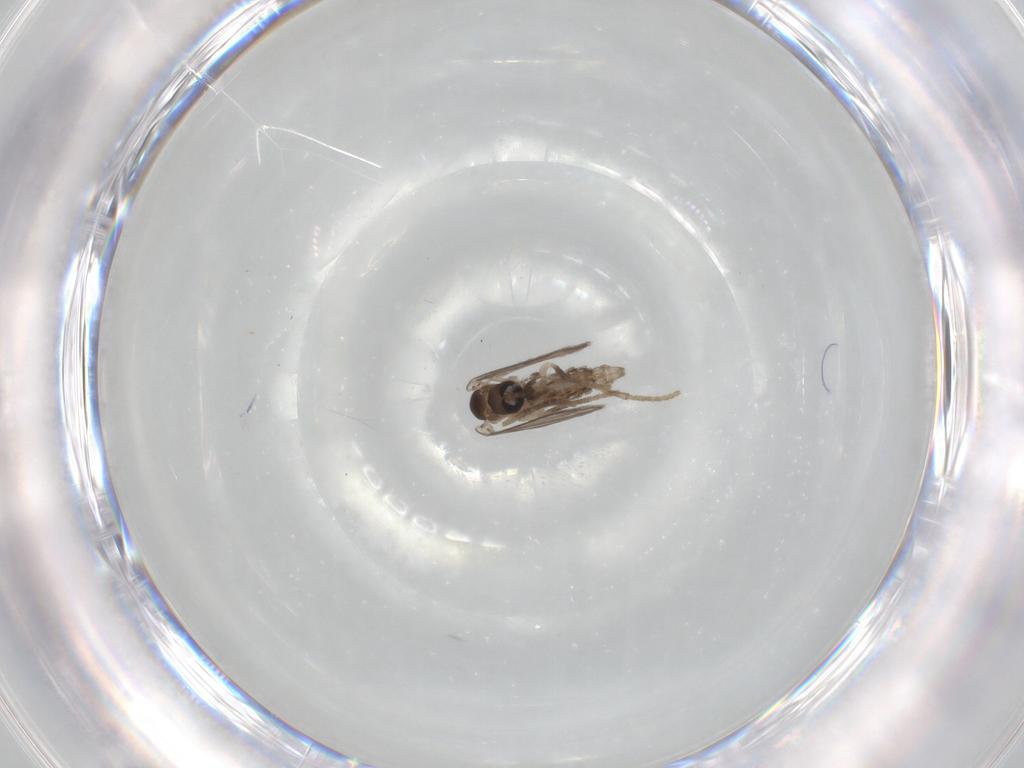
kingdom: Animalia
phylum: Arthropoda
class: Insecta
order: Diptera
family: Psychodidae
